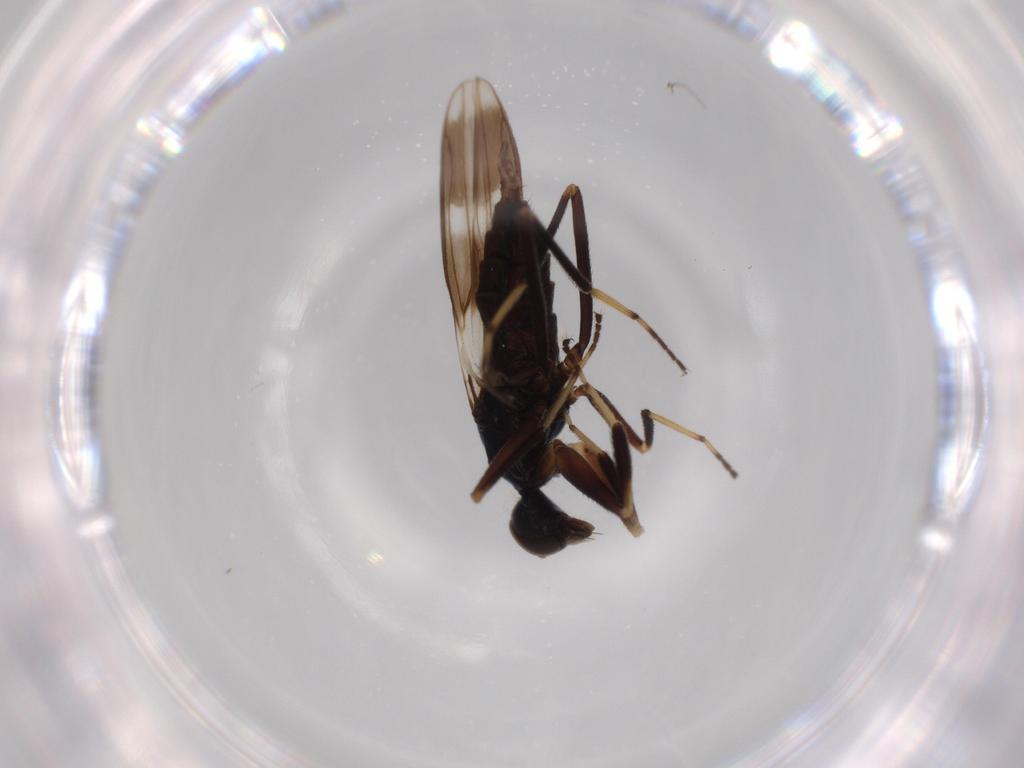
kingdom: Animalia
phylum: Arthropoda
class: Insecta
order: Diptera
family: Hybotidae
